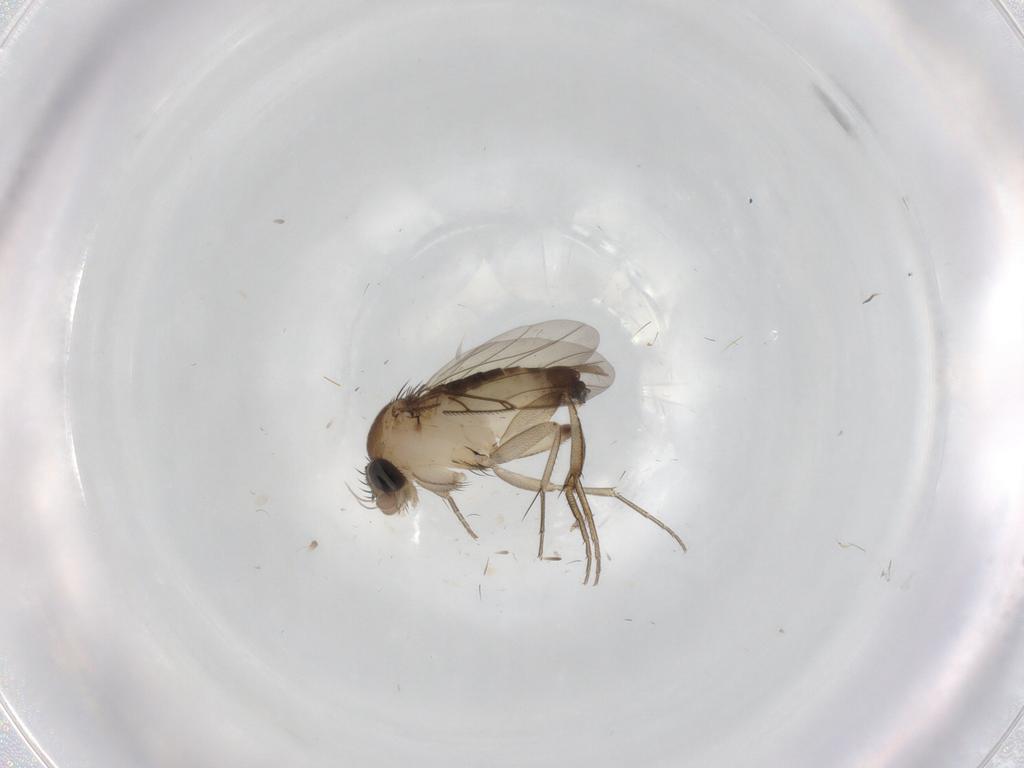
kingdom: Animalia
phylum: Arthropoda
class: Insecta
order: Diptera
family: Phoridae
